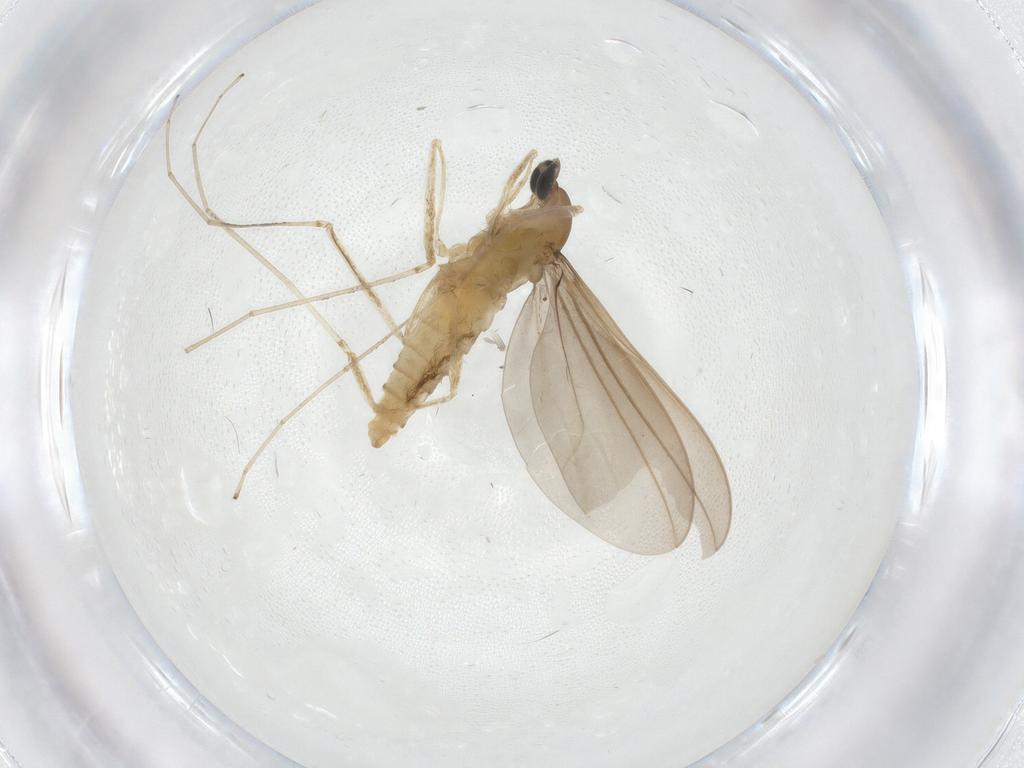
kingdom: Animalia
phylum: Arthropoda
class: Insecta
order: Diptera
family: Cecidomyiidae
